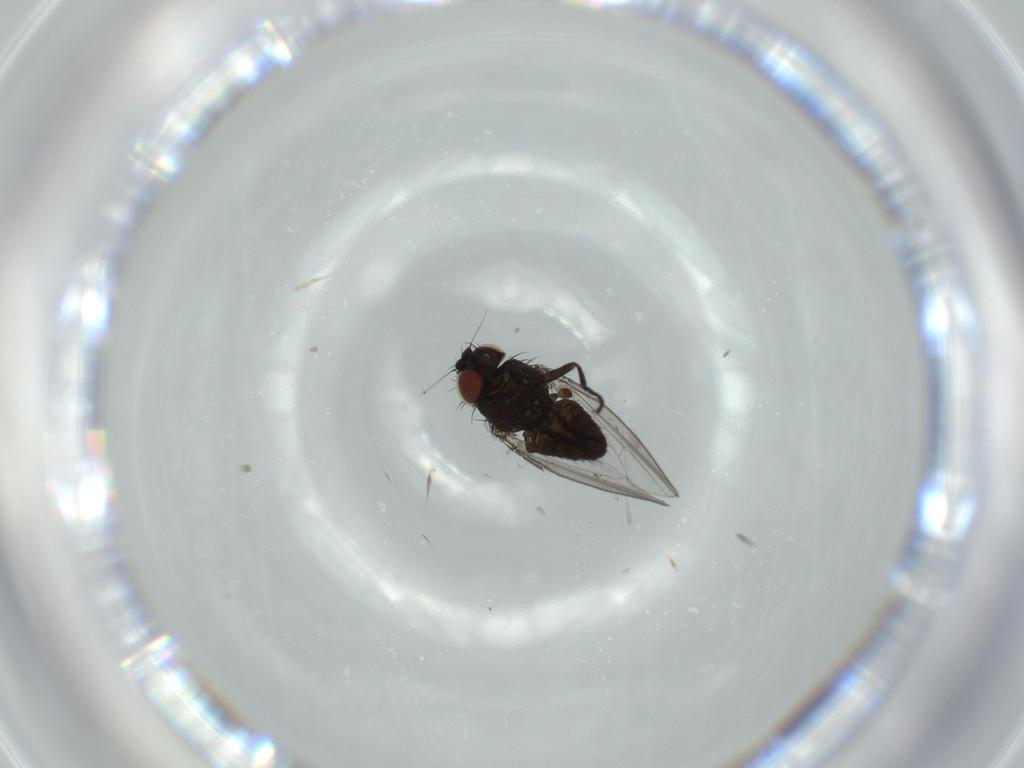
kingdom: Animalia
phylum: Arthropoda
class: Insecta
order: Diptera
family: Milichiidae
